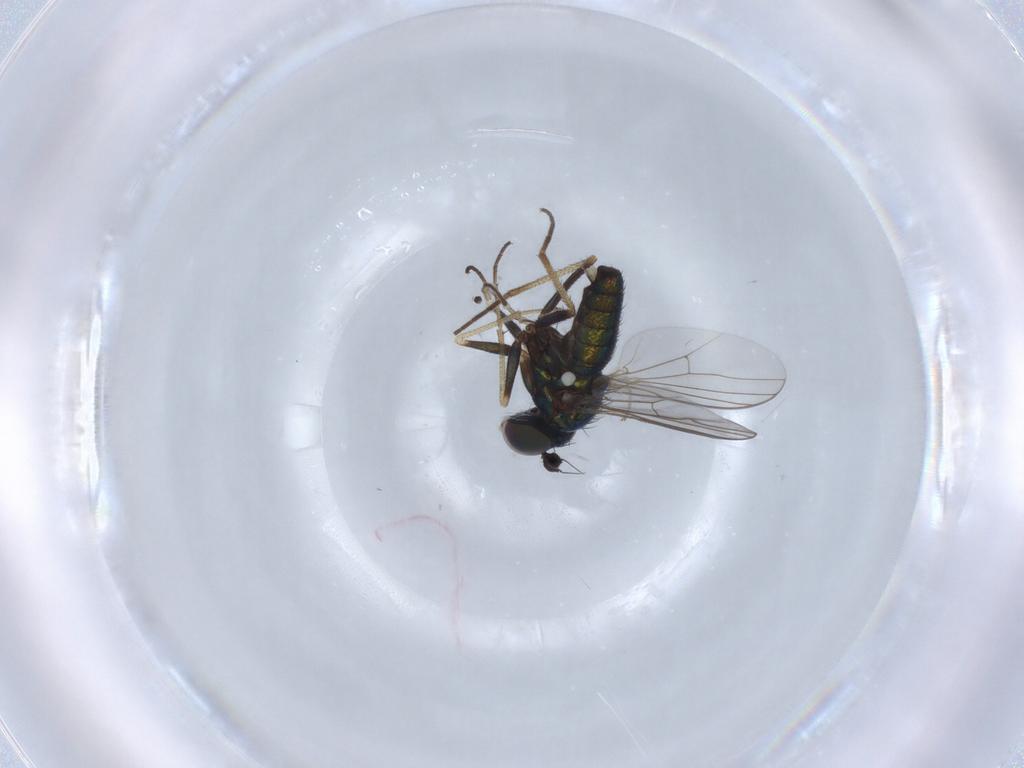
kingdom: Animalia
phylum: Arthropoda
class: Insecta
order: Diptera
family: Dolichopodidae
